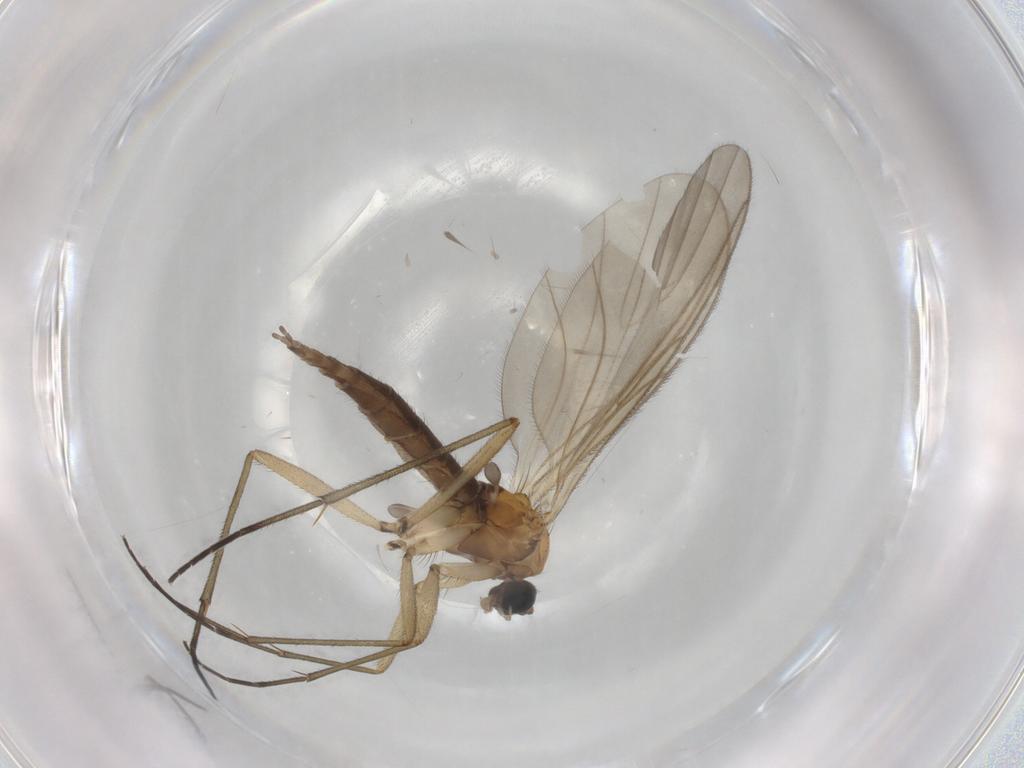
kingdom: Animalia
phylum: Arthropoda
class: Insecta
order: Diptera
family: Sciaridae
